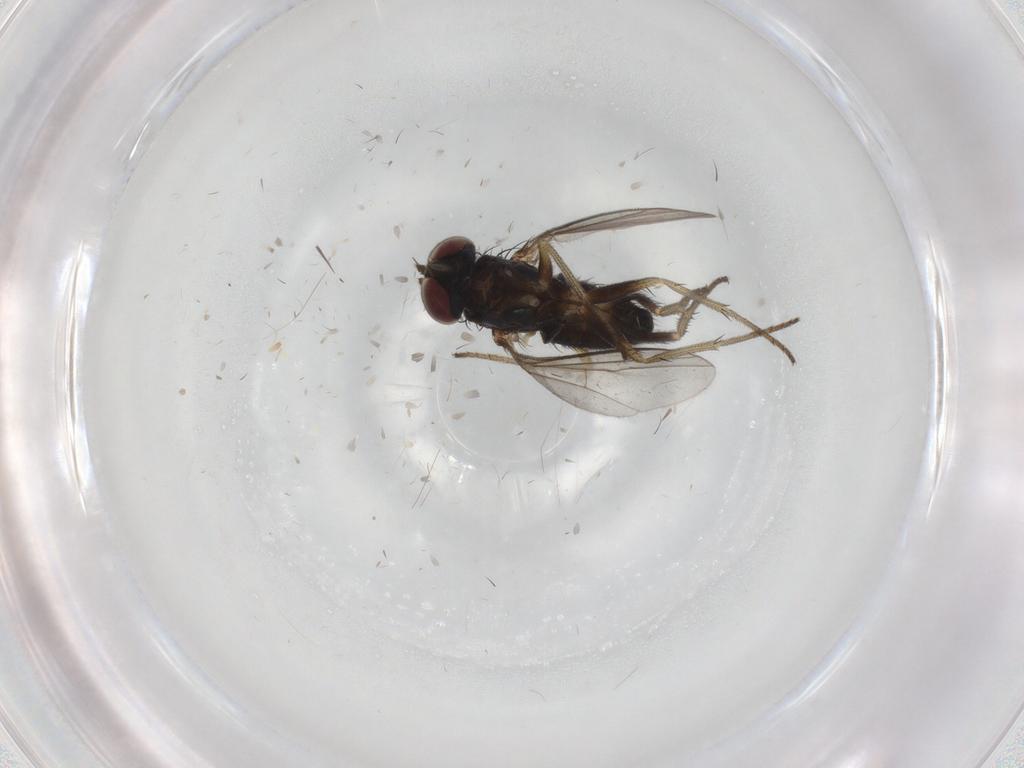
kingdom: Animalia
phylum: Arthropoda
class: Insecta
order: Diptera
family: Limoniidae
